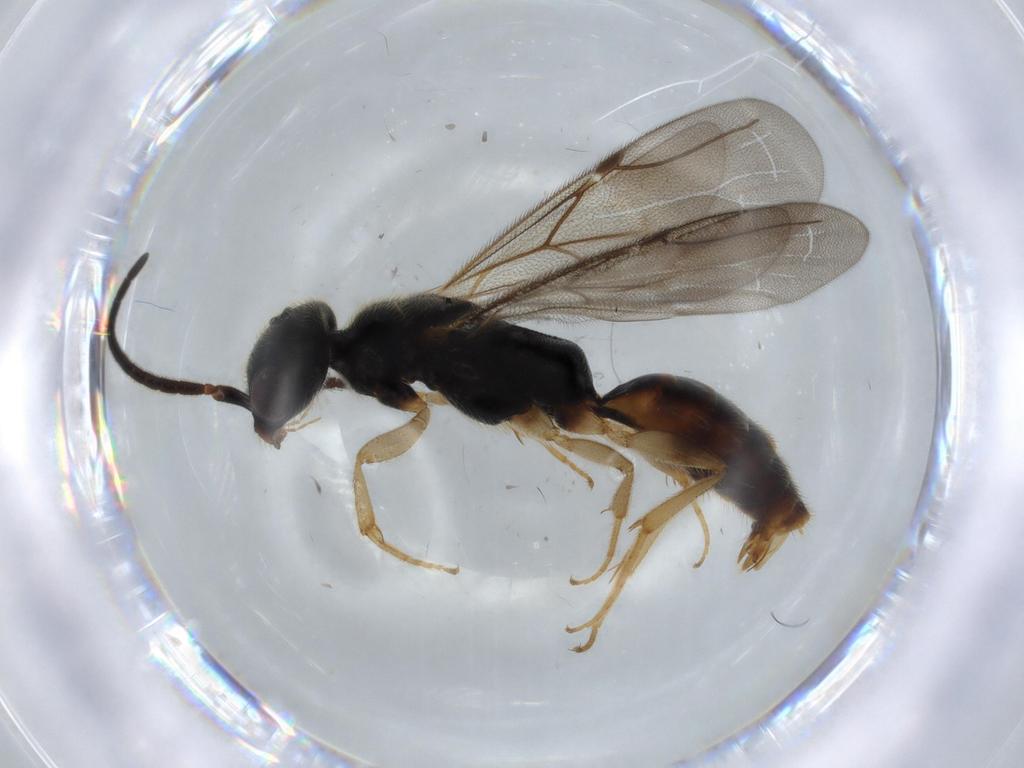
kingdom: Animalia
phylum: Arthropoda
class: Insecta
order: Hymenoptera
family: Bethylidae
